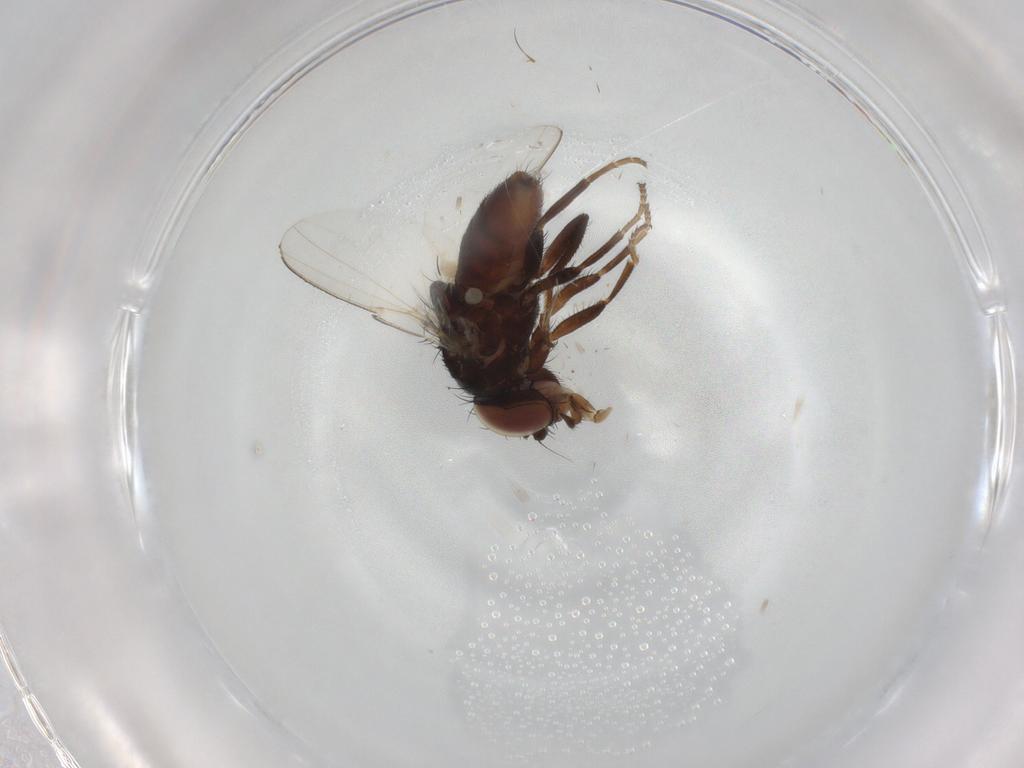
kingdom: Animalia
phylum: Arthropoda
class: Insecta
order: Diptera
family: Milichiidae
